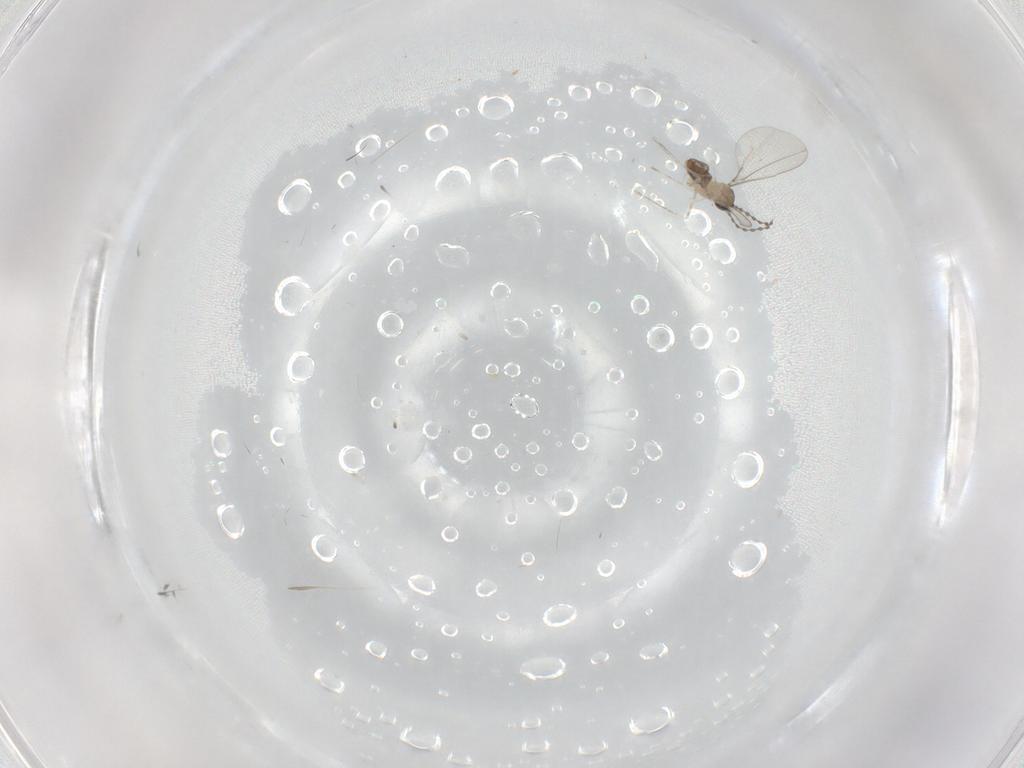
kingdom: Animalia
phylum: Arthropoda
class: Insecta
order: Diptera
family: Cecidomyiidae
